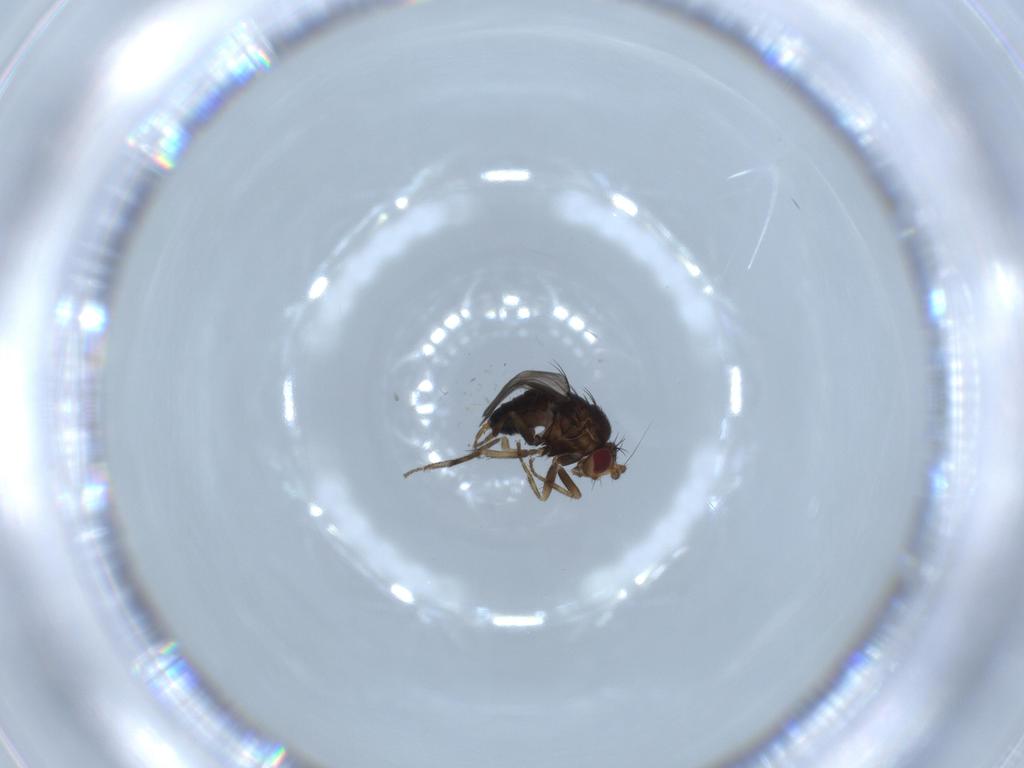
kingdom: Animalia
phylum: Arthropoda
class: Insecta
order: Diptera
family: Sphaeroceridae
